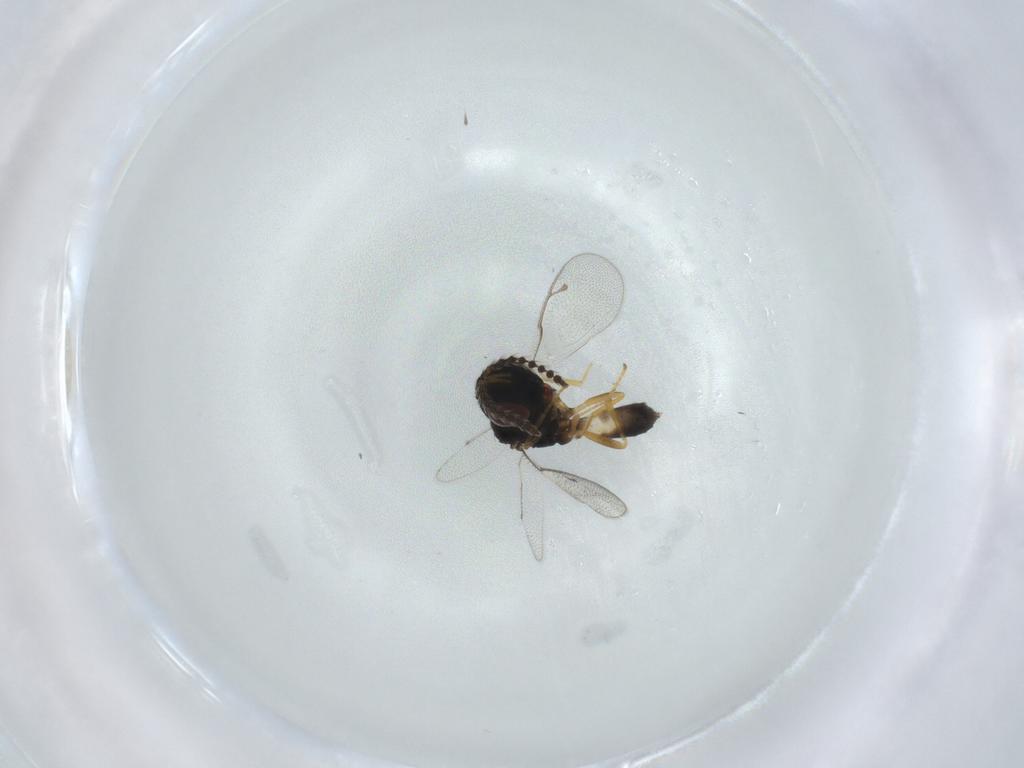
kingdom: Animalia
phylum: Arthropoda
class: Insecta
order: Hymenoptera
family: Pteromalidae
